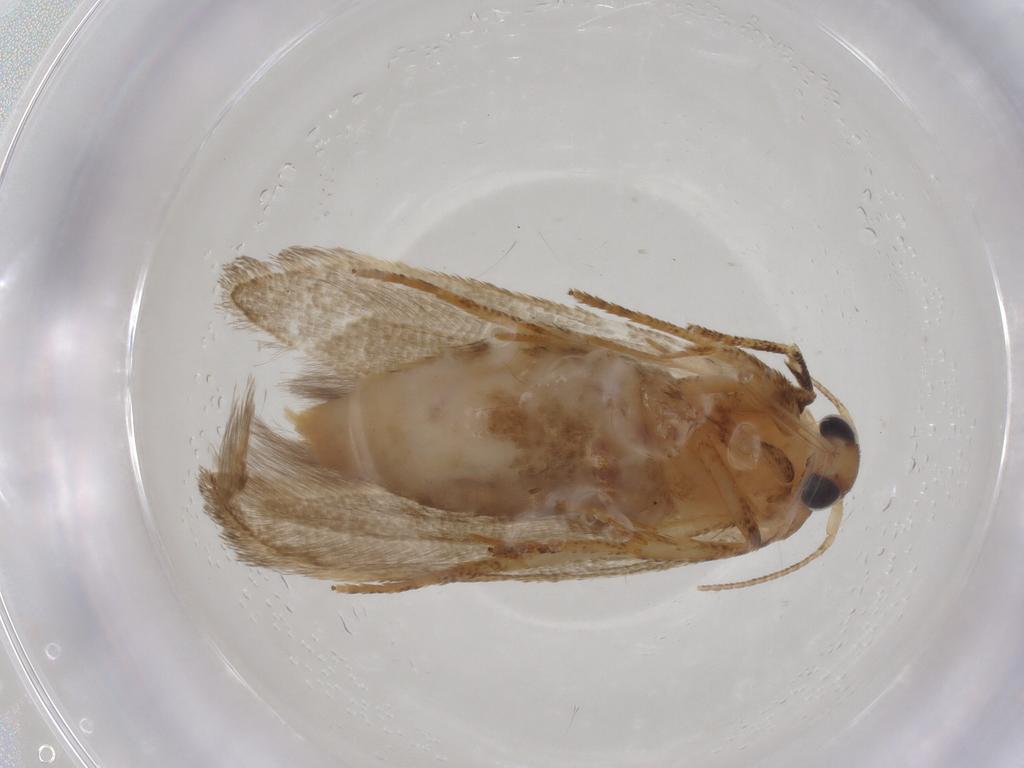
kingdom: Animalia
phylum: Arthropoda
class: Insecta
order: Lepidoptera
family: Blastobasidae
